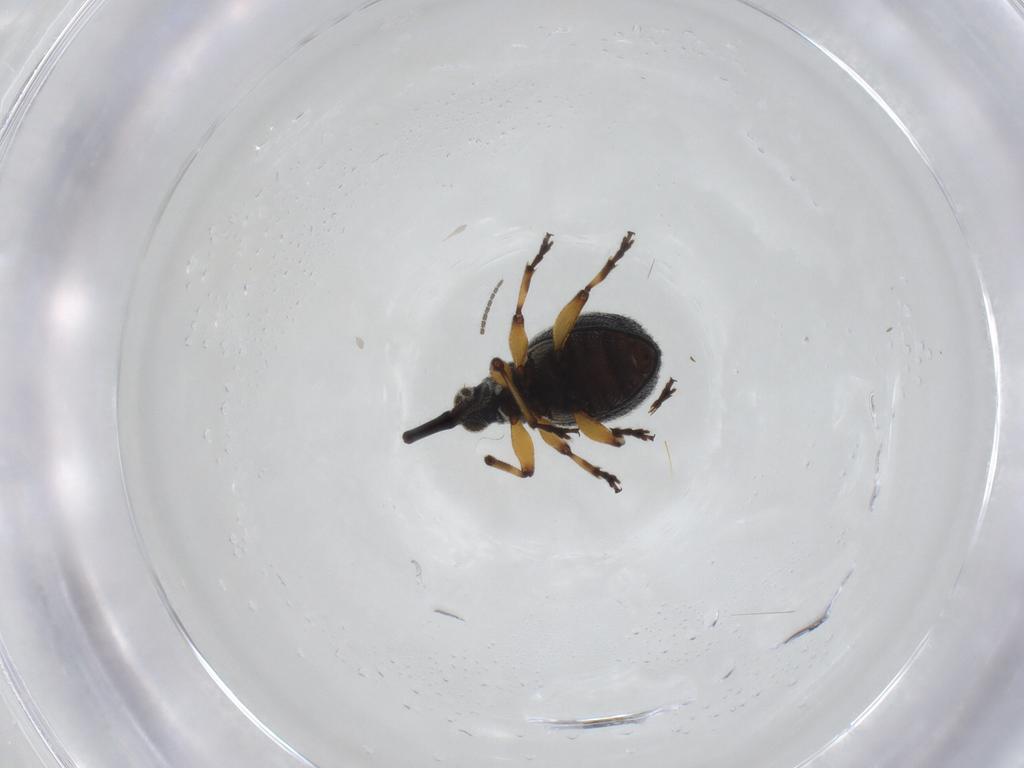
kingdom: Animalia
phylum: Arthropoda
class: Insecta
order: Coleoptera
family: Brentidae
